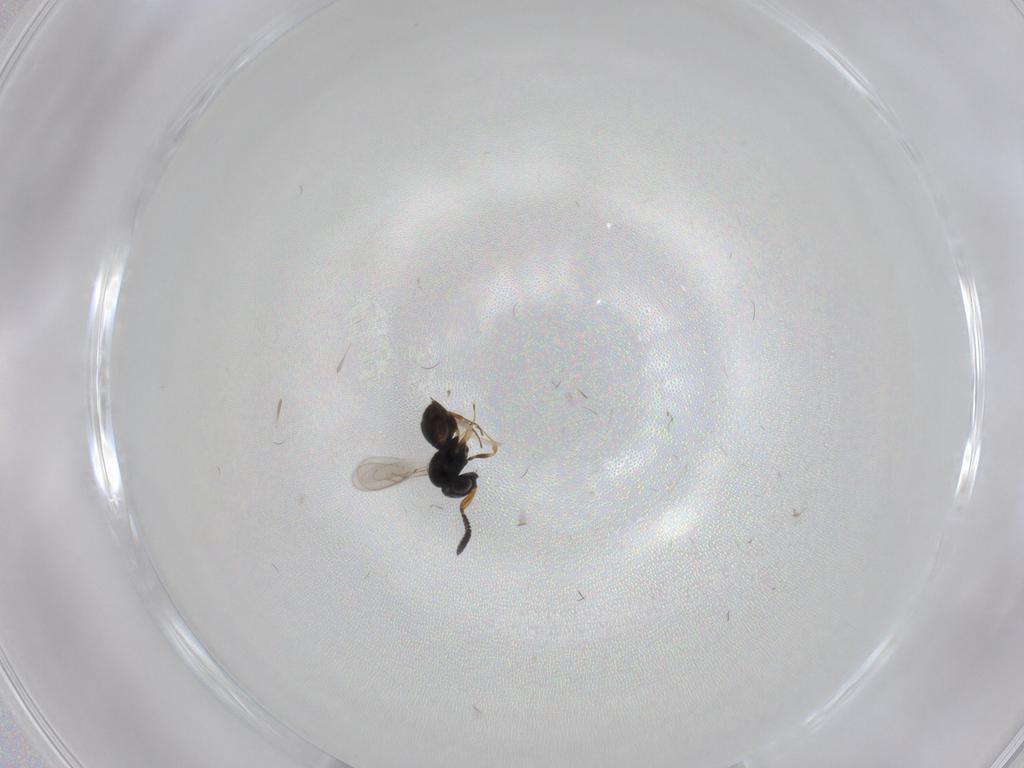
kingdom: Animalia
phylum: Arthropoda
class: Insecta
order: Hymenoptera
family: Scelionidae
